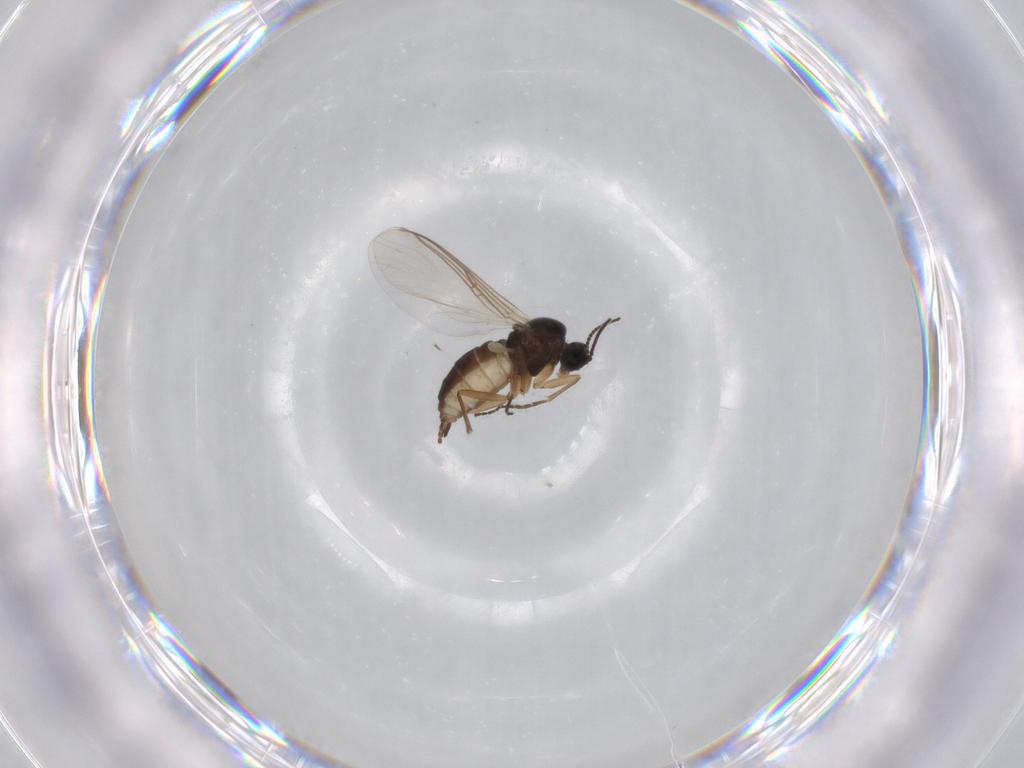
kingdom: Animalia
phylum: Arthropoda
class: Insecta
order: Diptera
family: Sciaridae
